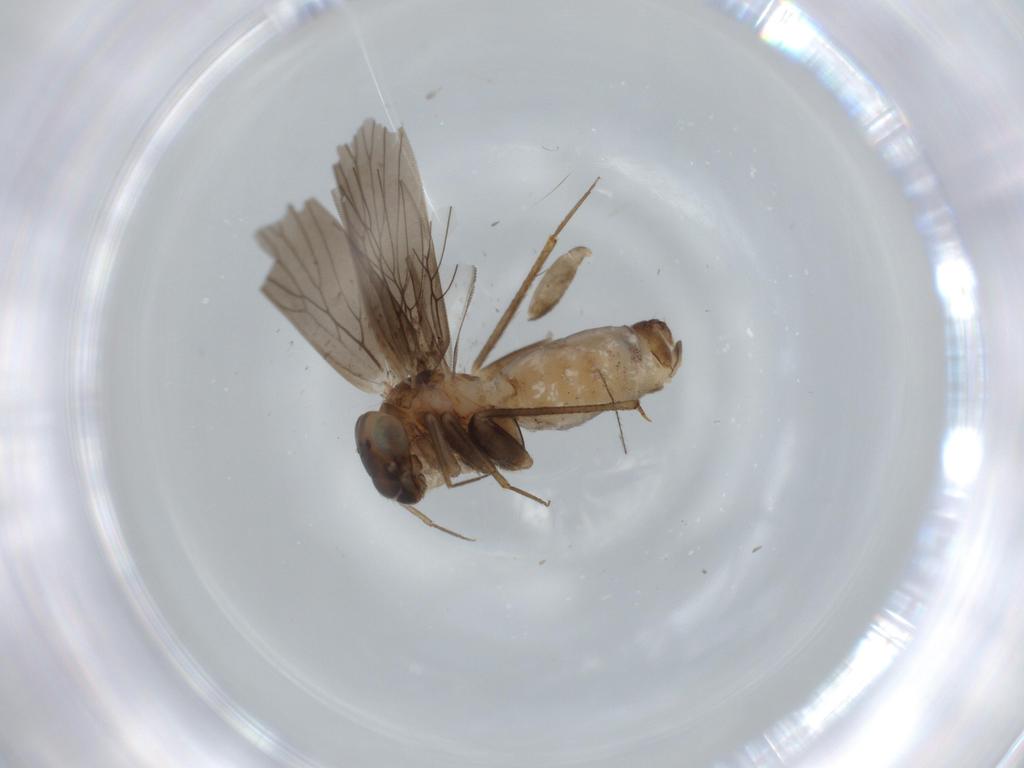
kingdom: Animalia
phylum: Arthropoda
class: Insecta
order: Psocodea
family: Lepidopsocidae
